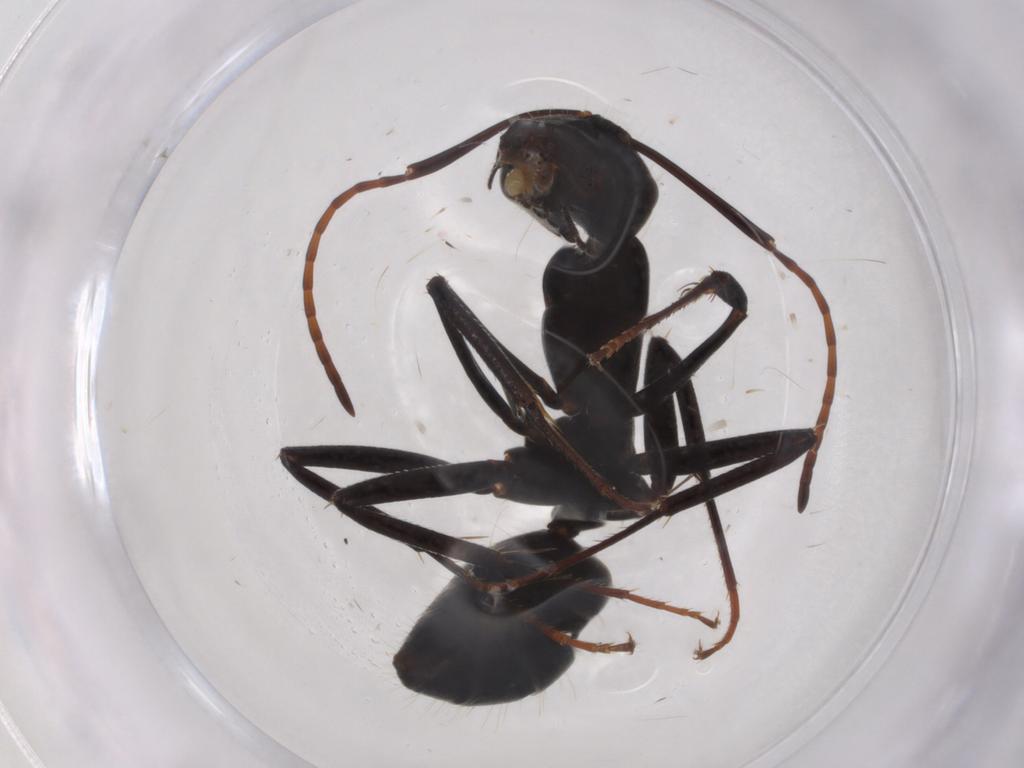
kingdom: Animalia
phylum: Arthropoda
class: Insecta
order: Hymenoptera
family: Formicidae
